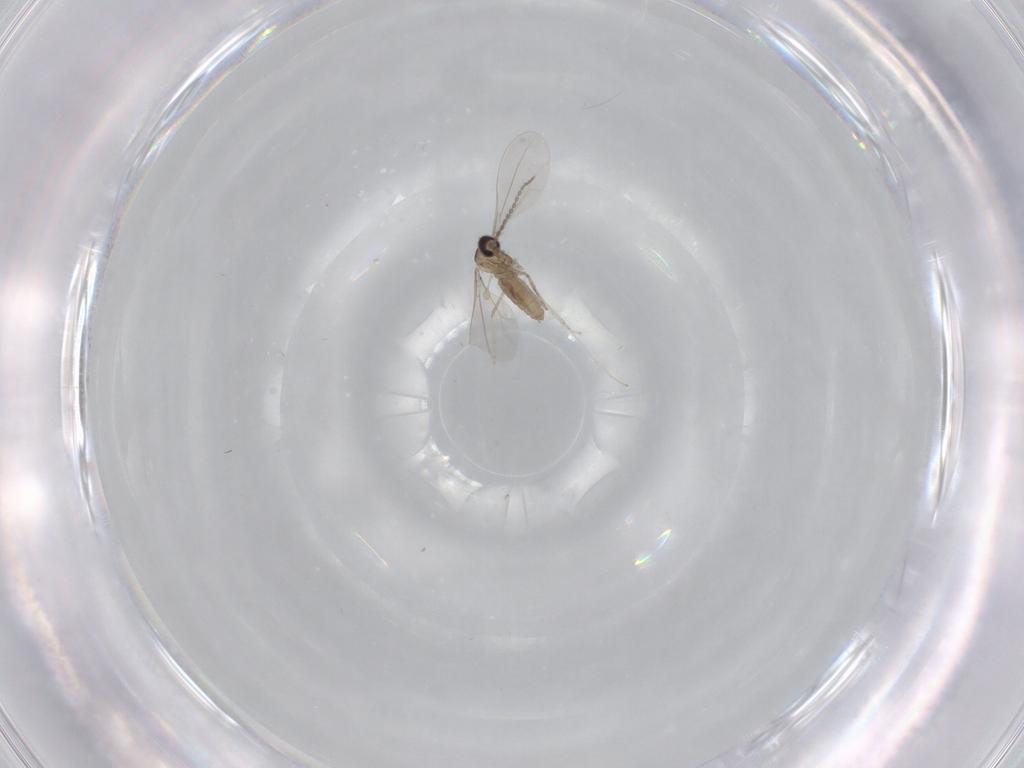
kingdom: Animalia
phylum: Arthropoda
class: Insecta
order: Diptera
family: Cecidomyiidae
